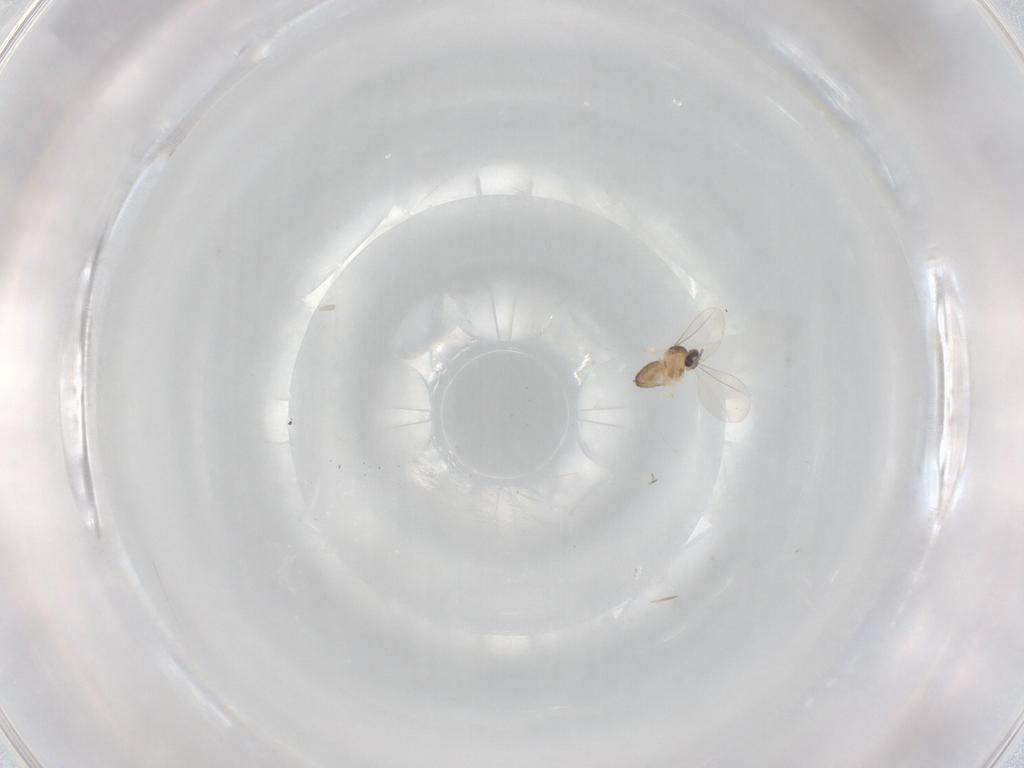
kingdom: Animalia
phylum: Arthropoda
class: Insecta
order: Diptera
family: Cecidomyiidae
